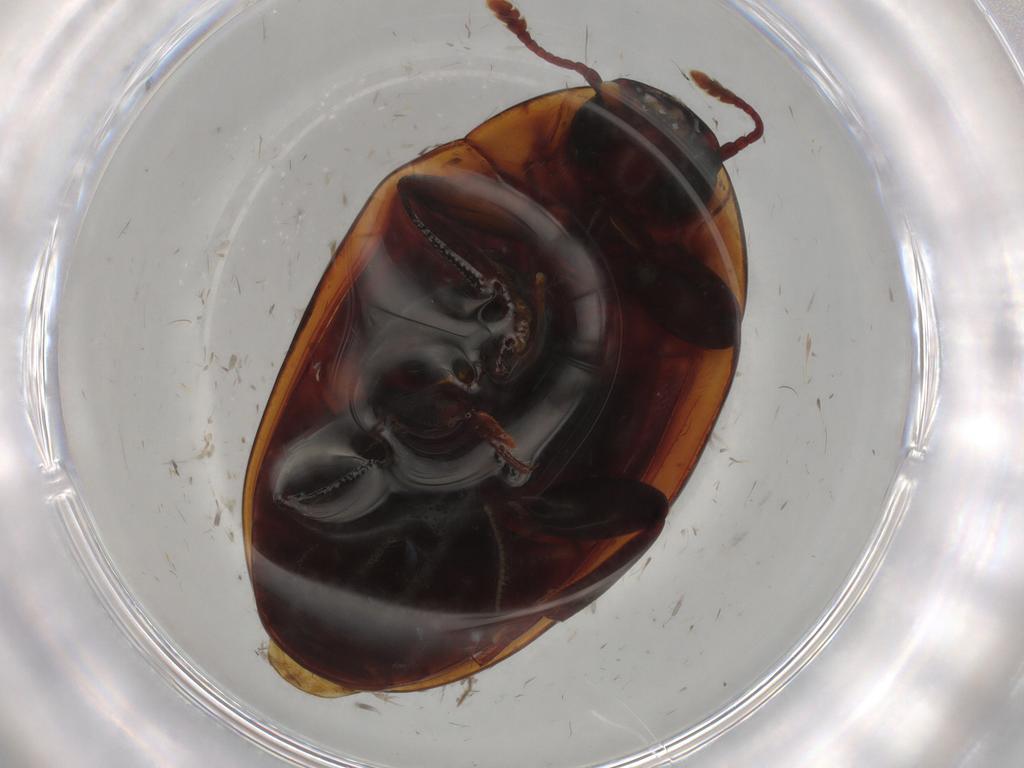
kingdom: Animalia
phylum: Arthropoda
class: Insecta
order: Coleoptera
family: Zopheridae
